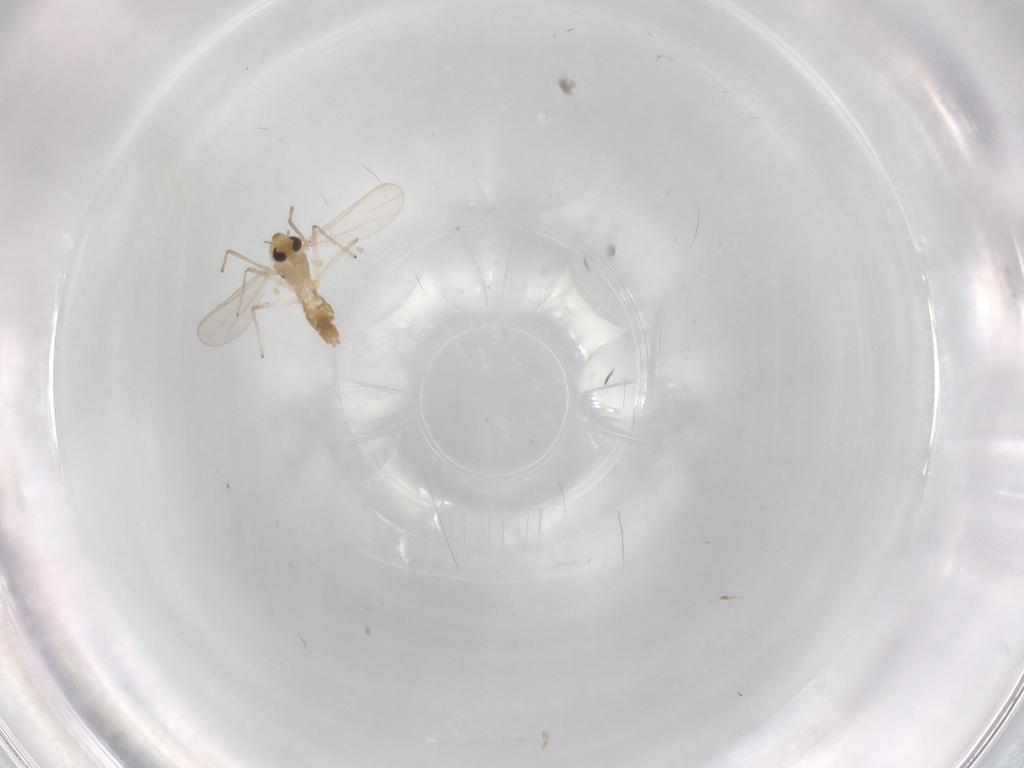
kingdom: Animalia
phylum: Arthropoda
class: Insecta
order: Diptera
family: Chironomidae
